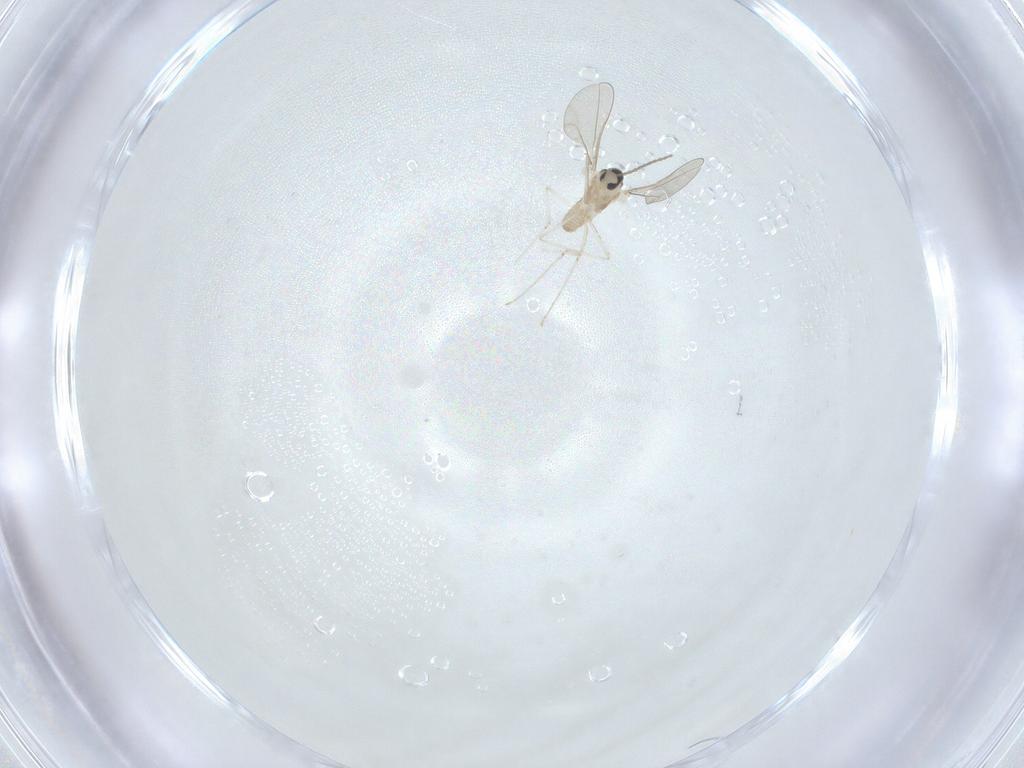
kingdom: Animalia
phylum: Arthropoda
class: Insecta
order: Diptera
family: Cecidomyiidae
